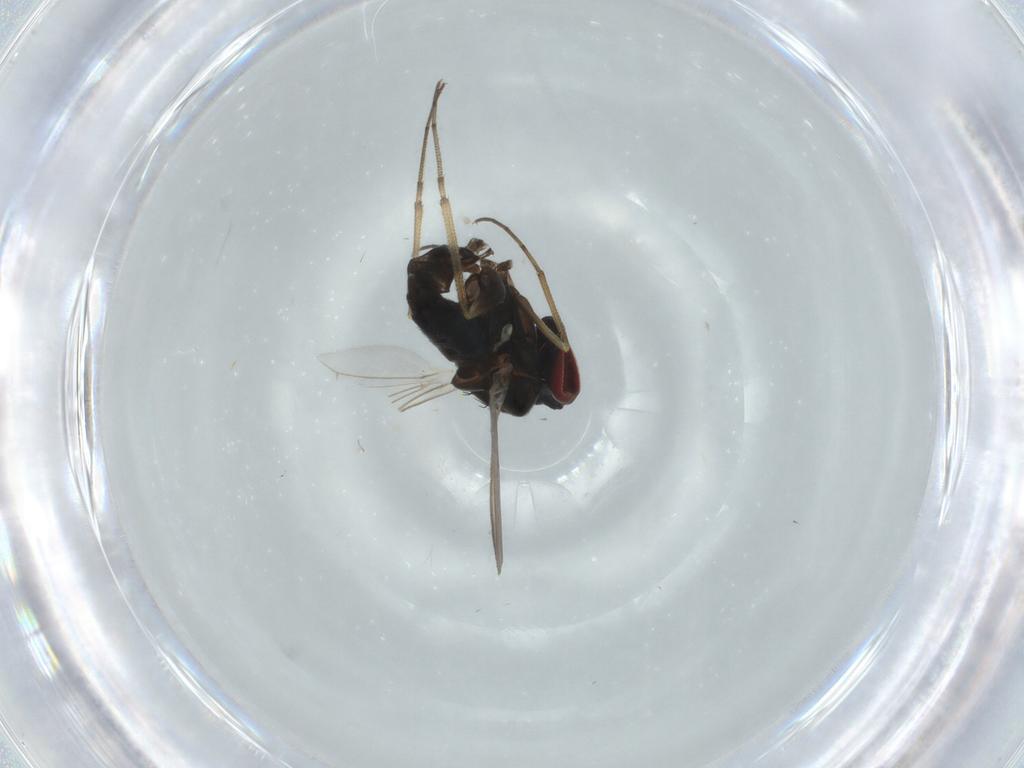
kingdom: Animalia
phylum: Arthropoda
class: Insecta
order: Diptera
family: Dolichopodidae
